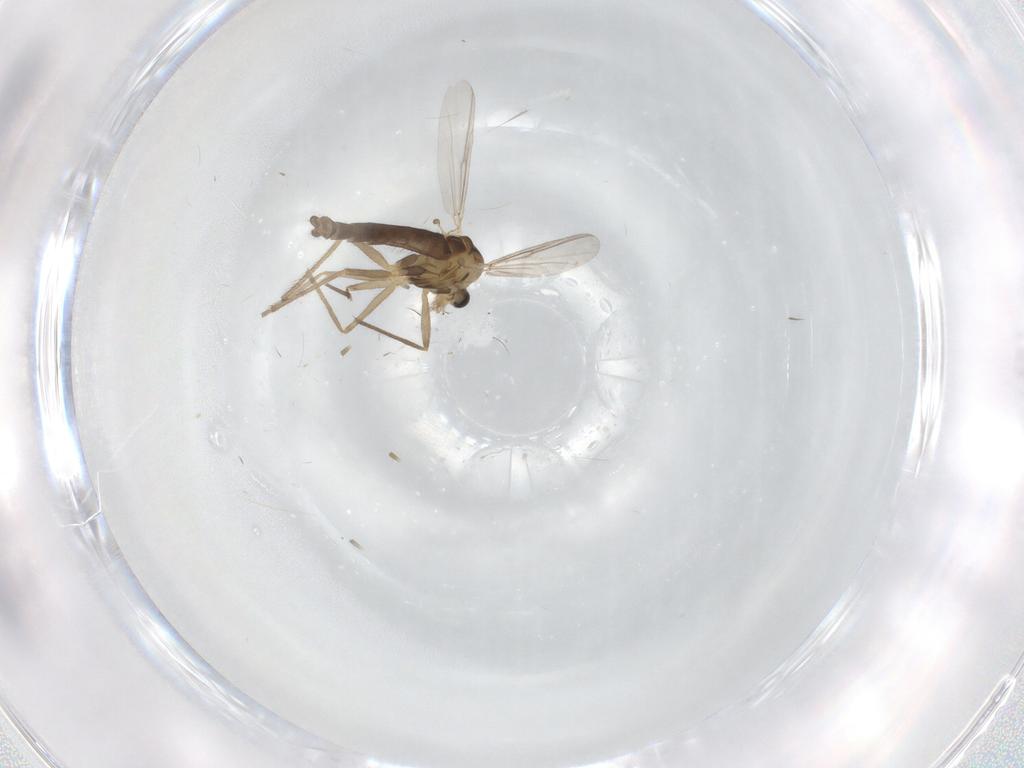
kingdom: Animalia
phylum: Arthropoda
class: Insecta
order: Diptera
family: Chironomidae
